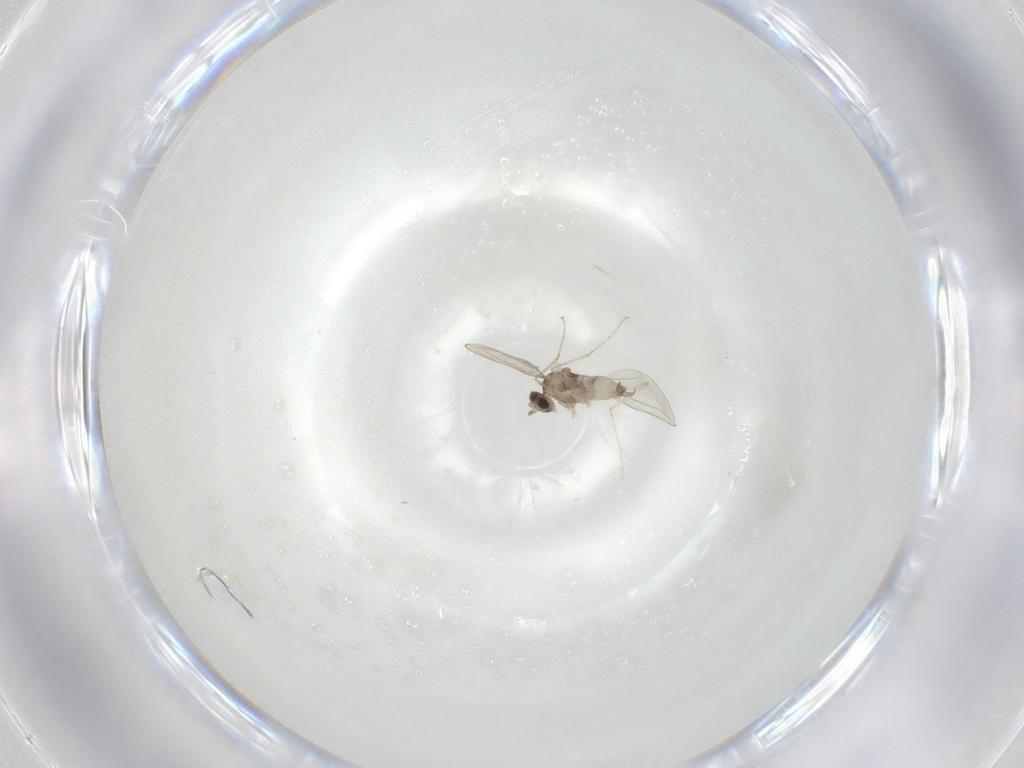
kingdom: Animalia
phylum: Arthropoda
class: Insecta
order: Diptera
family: Cecidomyiidae
